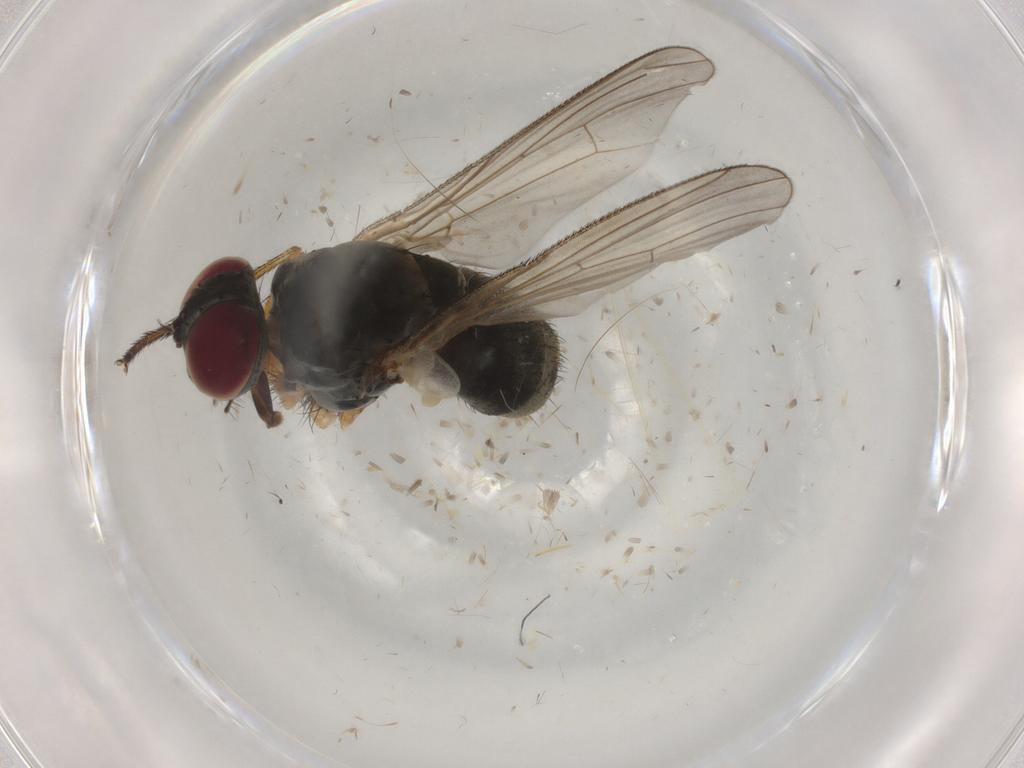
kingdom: Animalia
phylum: Arthropoda
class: Insecta
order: Diptera
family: Muscidae
